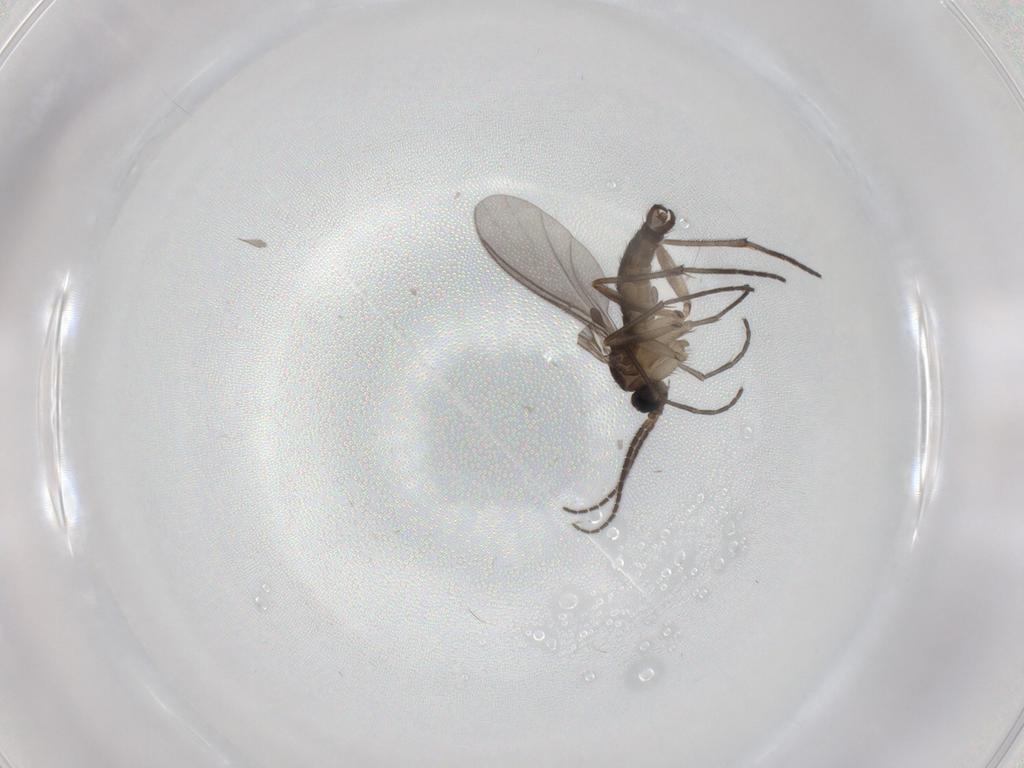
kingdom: Animalia
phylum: Arthropoda
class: Insecta
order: Diptera
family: Sciaridae
